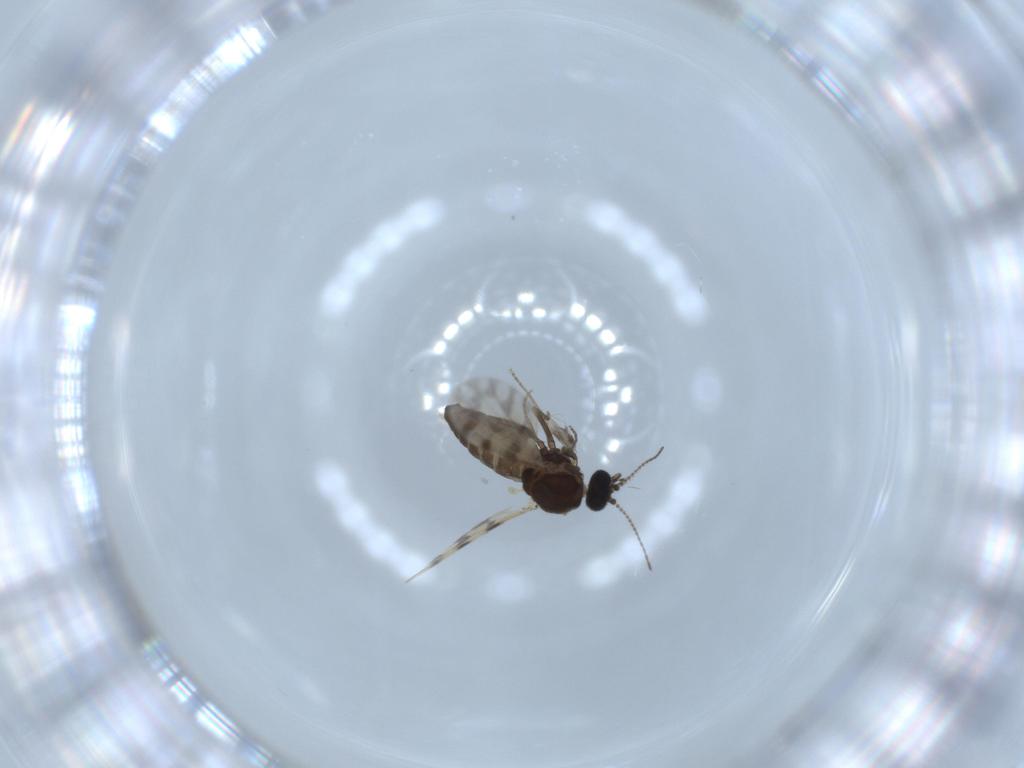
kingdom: Animalia
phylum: Arthropoda
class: Insecta
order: Diptera
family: Ceratopogonidae
